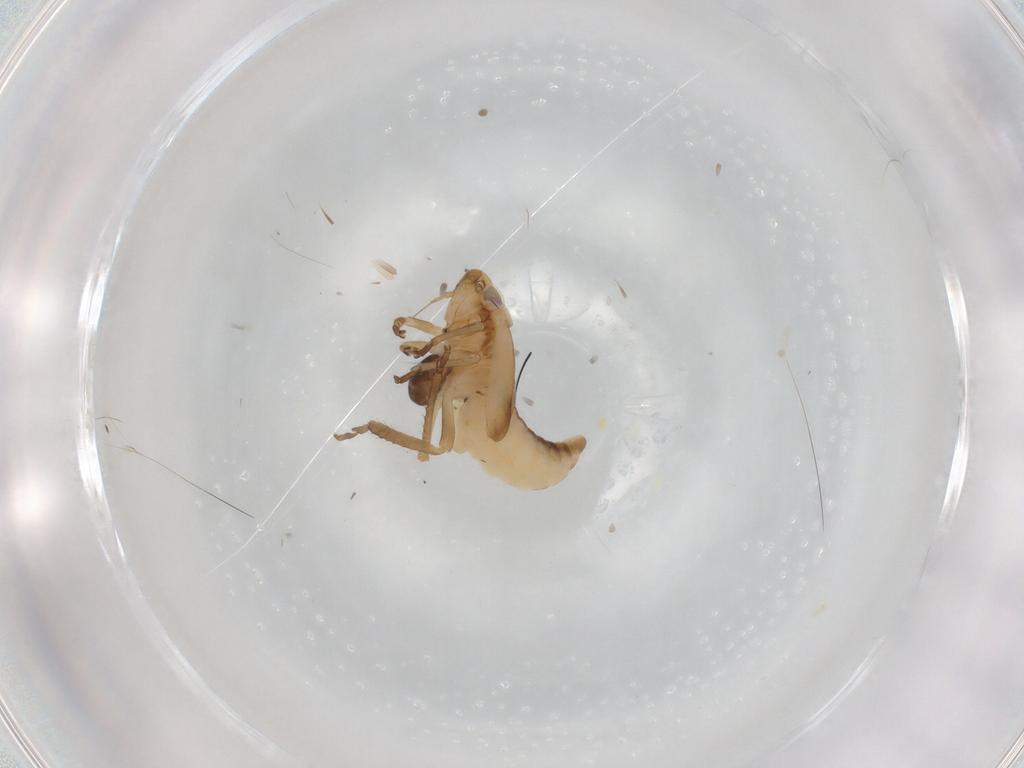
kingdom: Animalia
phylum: Arthropoda
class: Insecta
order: Hemiptera
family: Cicadellidae
